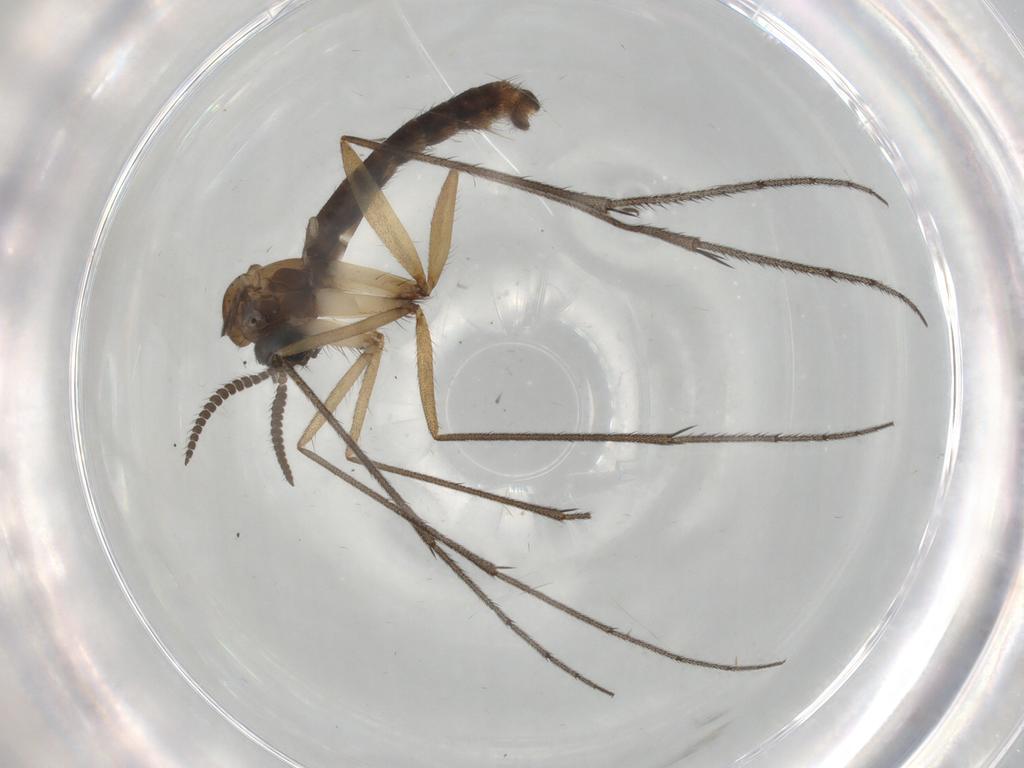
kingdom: Animalia
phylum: Arthropoda
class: Insecta
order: Diptera
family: Ditomyiidae
